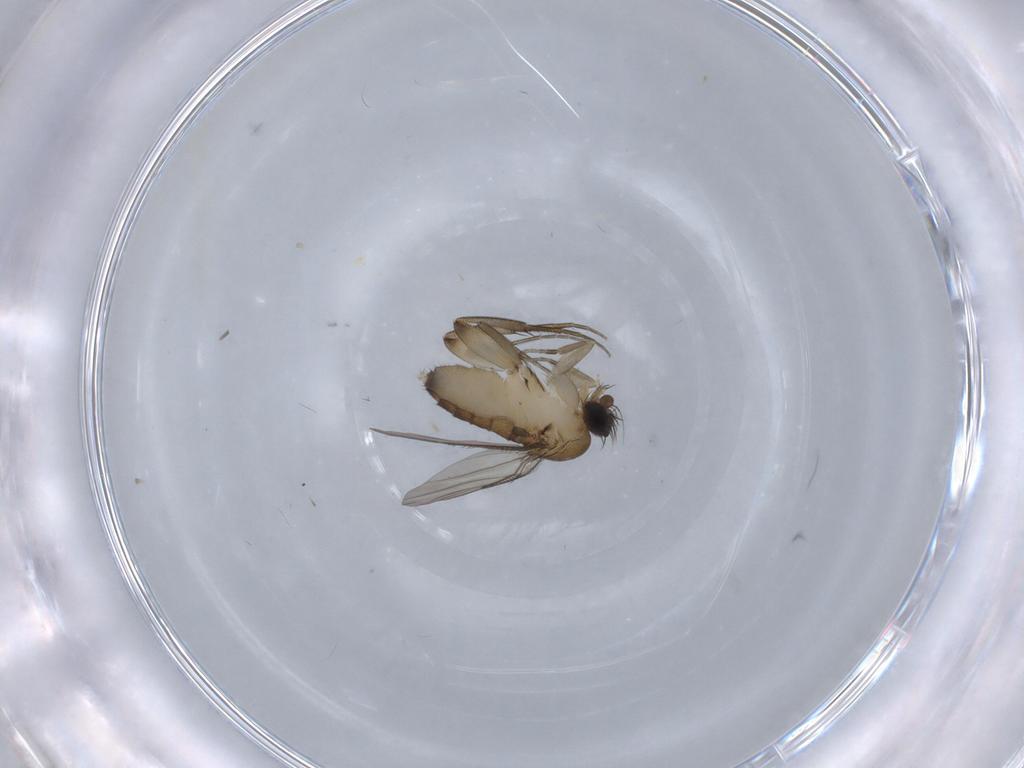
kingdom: Animalia
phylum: Arthropoda
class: Insecta
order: Diptera
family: Phoridae
